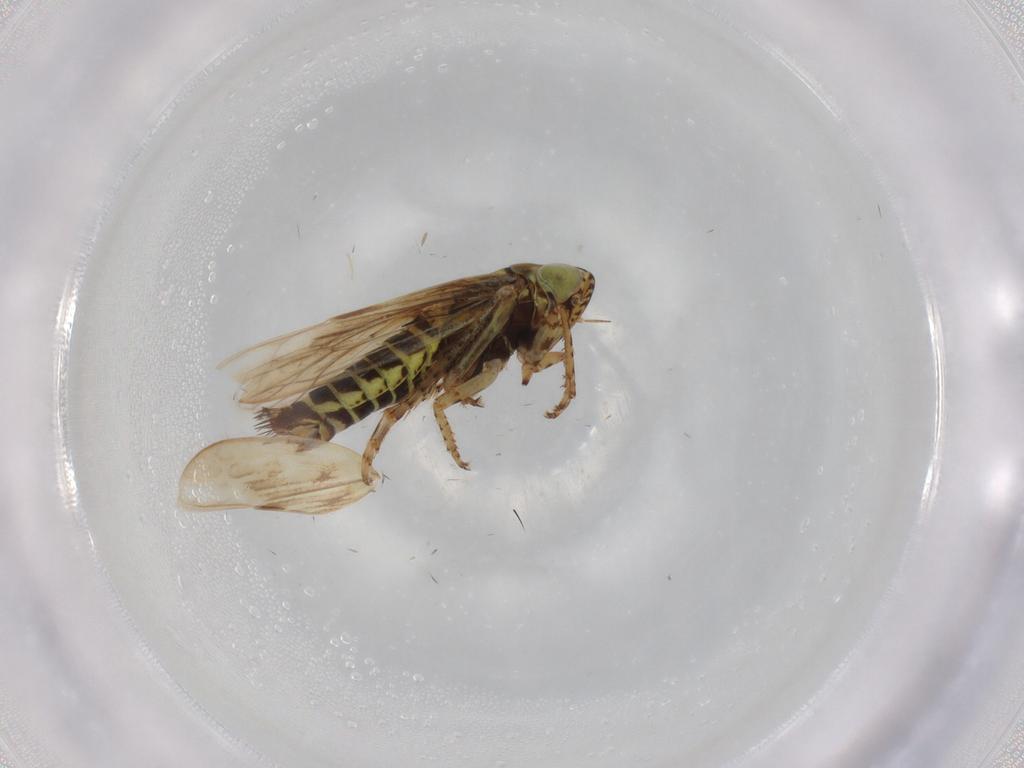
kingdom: Animalia
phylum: Arthropoda
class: Insecta
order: Hemiptera
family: Cicadellidae
